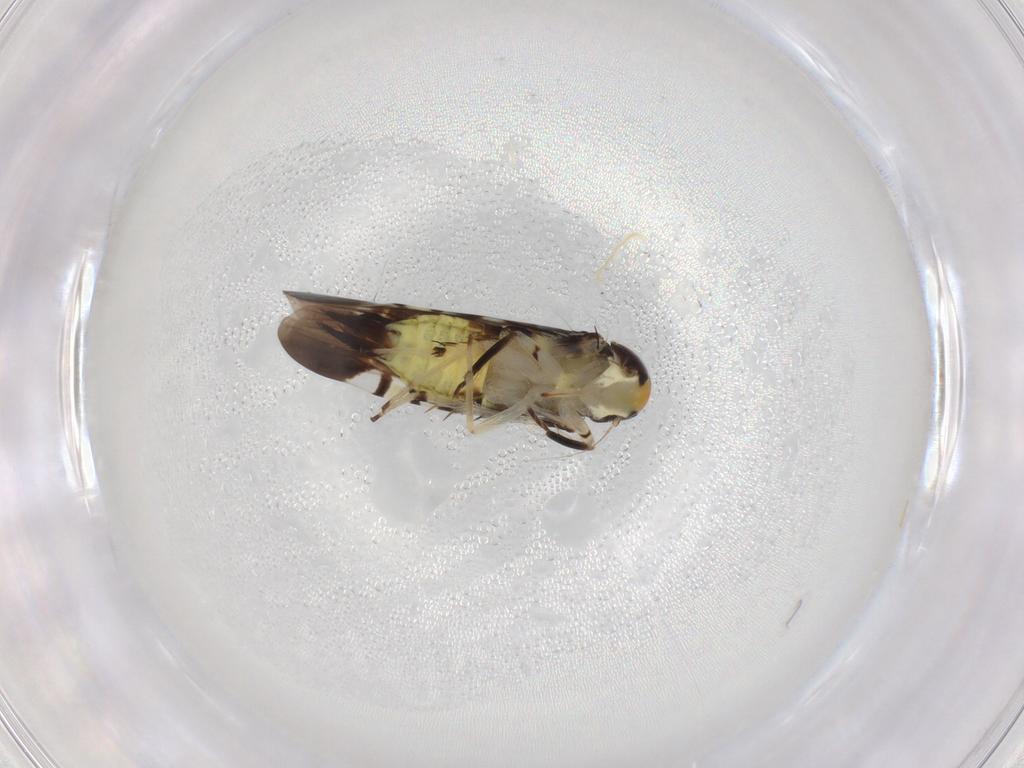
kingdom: Animalia
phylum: Arthropoda
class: Insecta
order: Hemiptera
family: Cicadellidae
